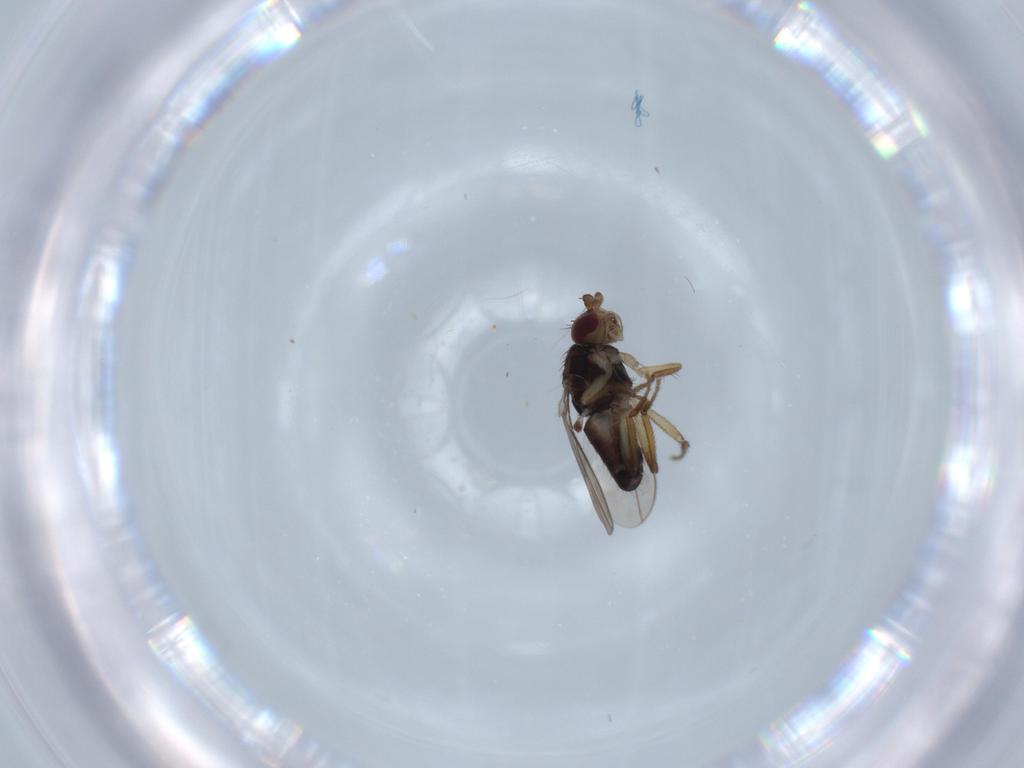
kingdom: Animalia
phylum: Arthropoda
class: Insecta
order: Diptera
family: Sphaeroceridae
